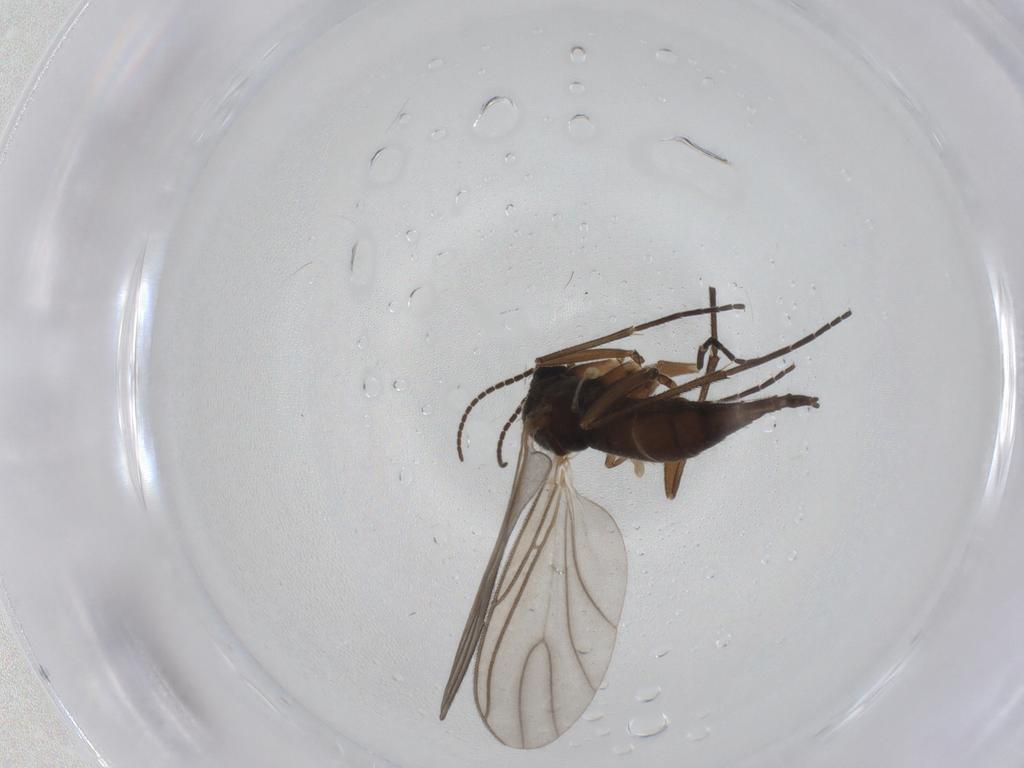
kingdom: Animalia
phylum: Arthropoda
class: Insecta
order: Diptera
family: Sciaridae
